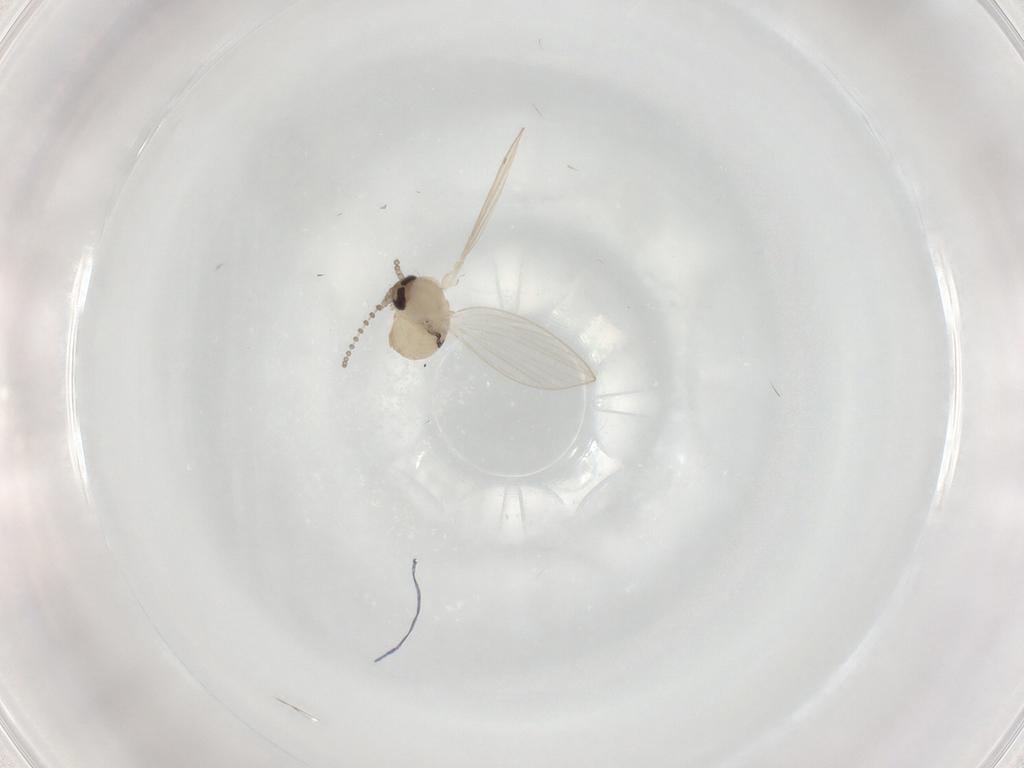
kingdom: Animalia
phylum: Arthropoda
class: Insecta
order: Diptera
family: Psychodidae
